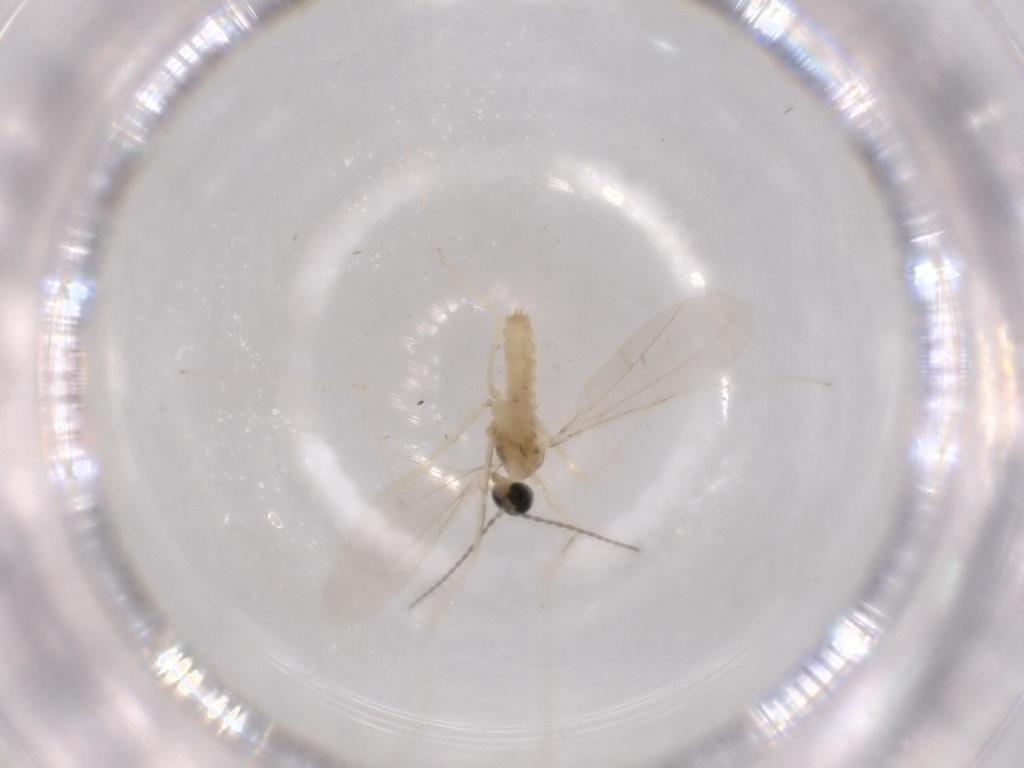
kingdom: Animalia
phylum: Arthropoda
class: Insecta
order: Diptera
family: Cecidomyiidae
